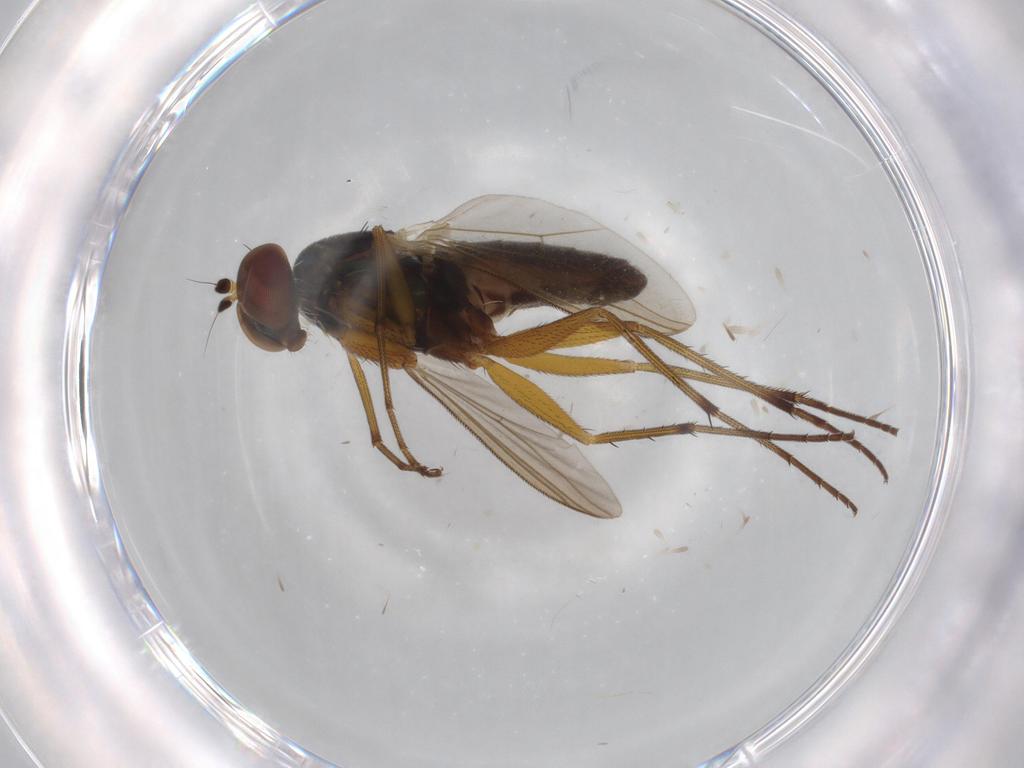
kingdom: Animalia
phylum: Arthropoda
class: Insecta
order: Diptera
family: Dolichopodidae
